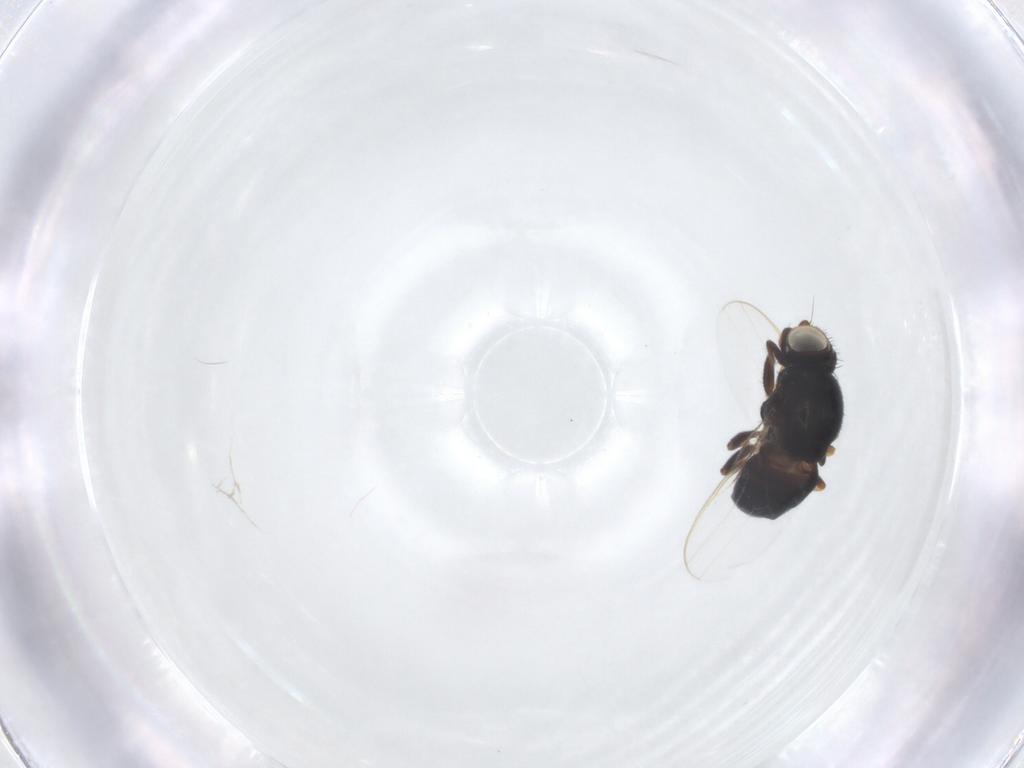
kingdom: Animalia
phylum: Arthropoda
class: Insecta
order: Diptera
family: Chloropidae
